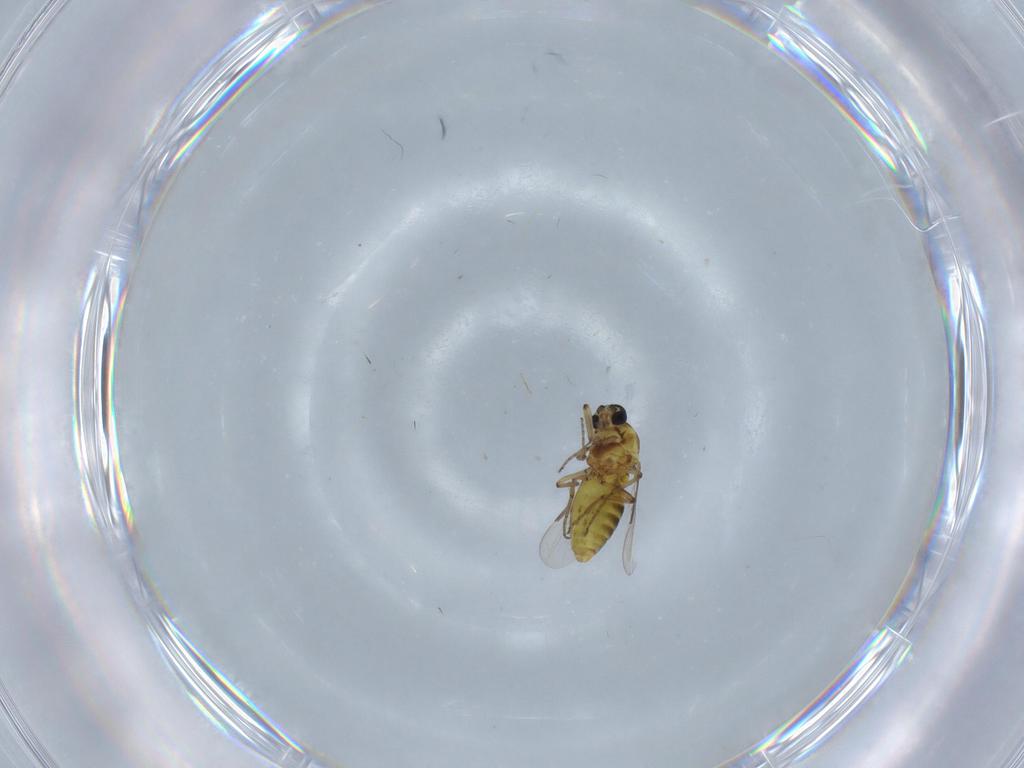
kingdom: Animalia
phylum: Arthropoda
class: Insecta
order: Diptera
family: Cecidomyiidae
